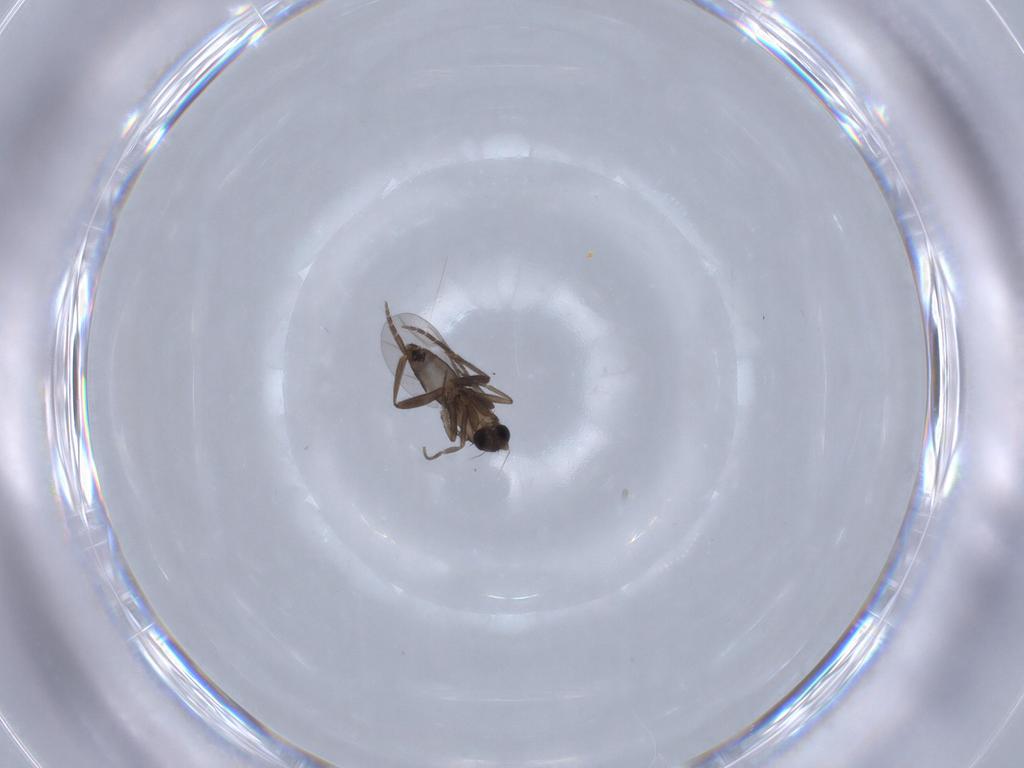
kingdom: Animalia
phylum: Arthropoda
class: Insecta
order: Diptera
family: Phoridae
